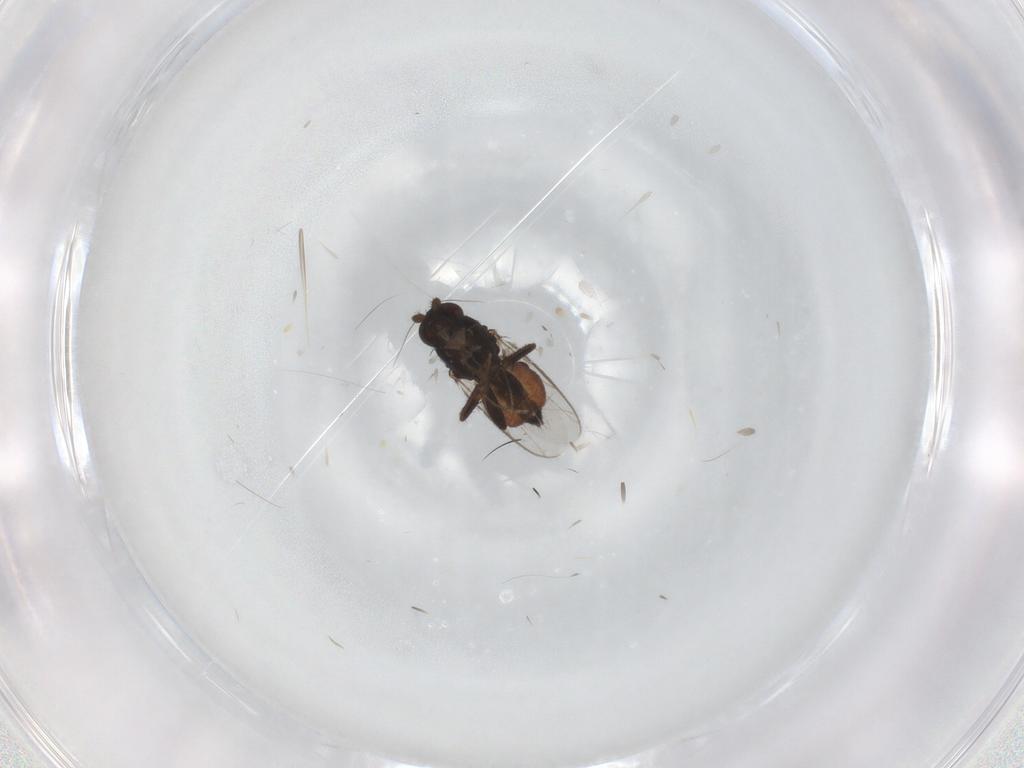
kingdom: Animalia
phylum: Arthropoda
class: Insecta
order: Diptera
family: Sphaeroceridae
